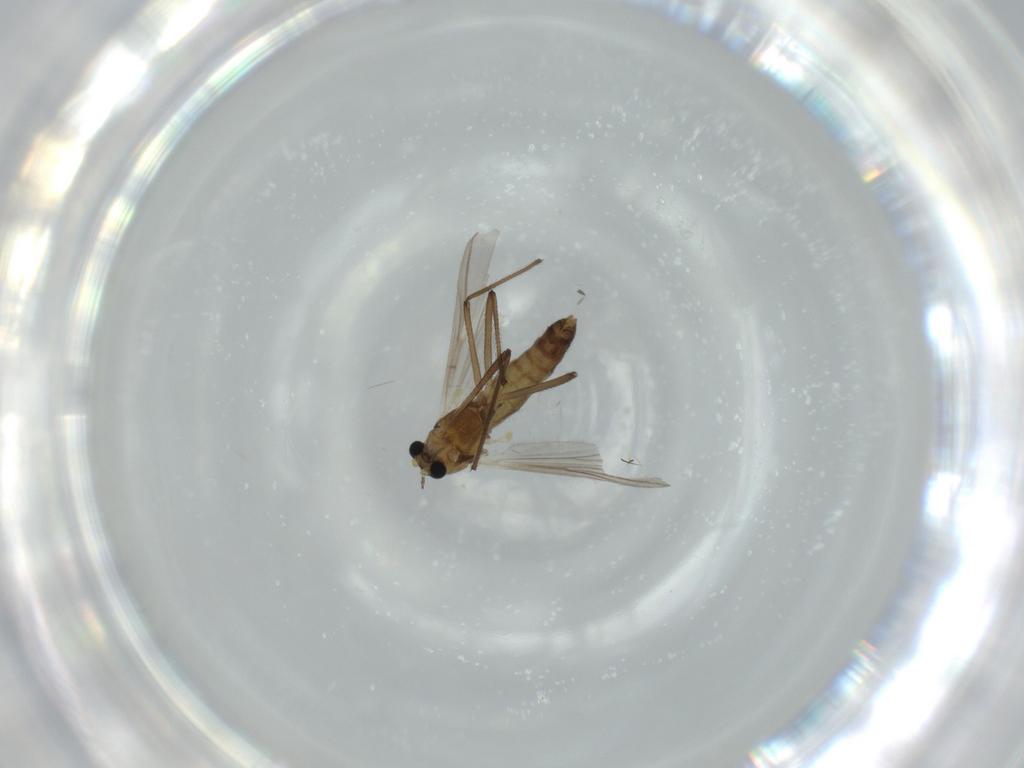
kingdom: Animalia
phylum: Arthropoda
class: Insecta
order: Diptera
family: Chironomidae
